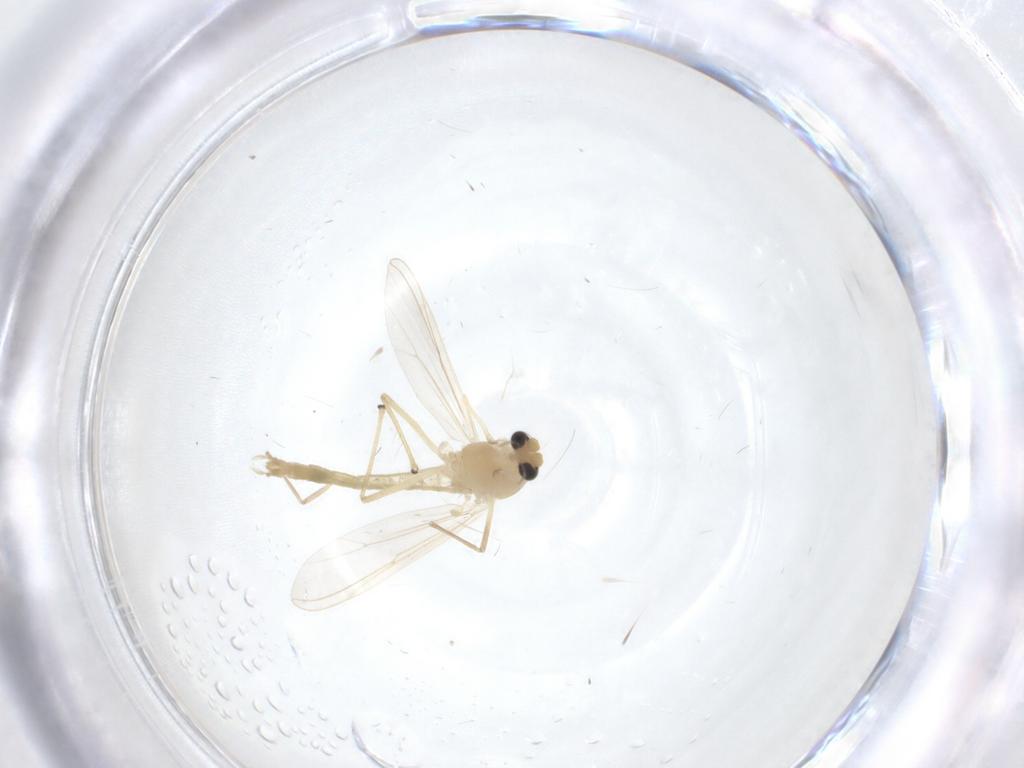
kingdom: Animalia
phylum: Arthropoda
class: Insecta
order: Diptera
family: Chironomidae
